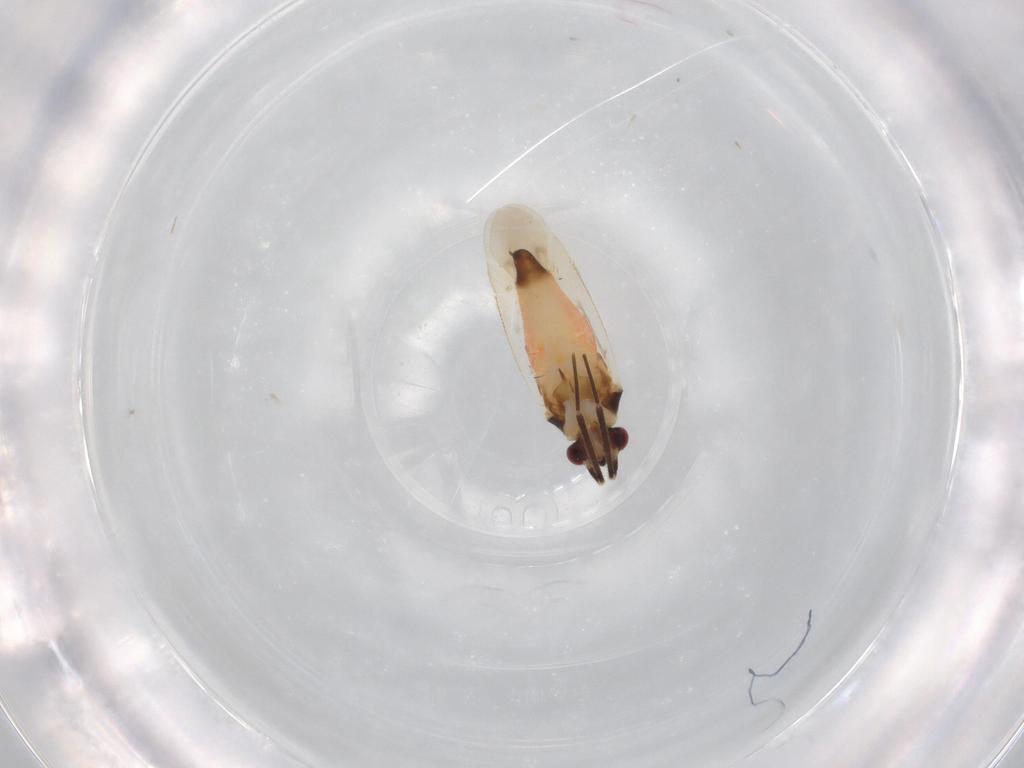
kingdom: Animalia
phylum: Arthropoda
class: Insecta
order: Hemiptera
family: Miridae
